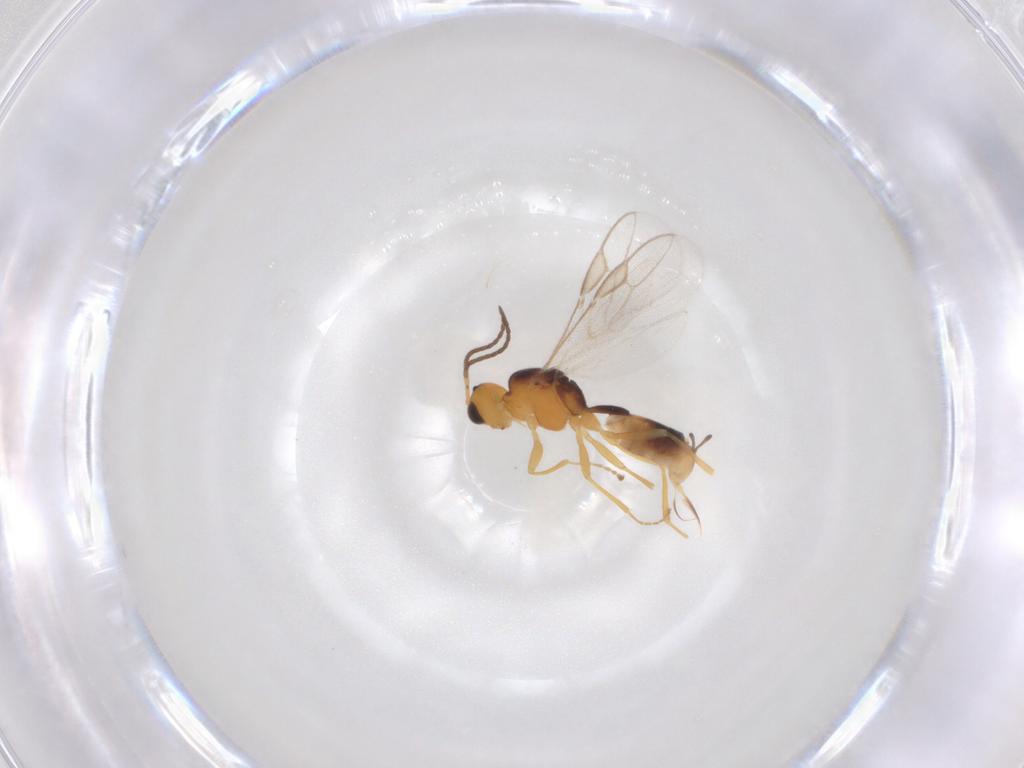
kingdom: Animalia
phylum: Arthropoda
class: Insecta
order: Hymenoptera
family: Braconidae
